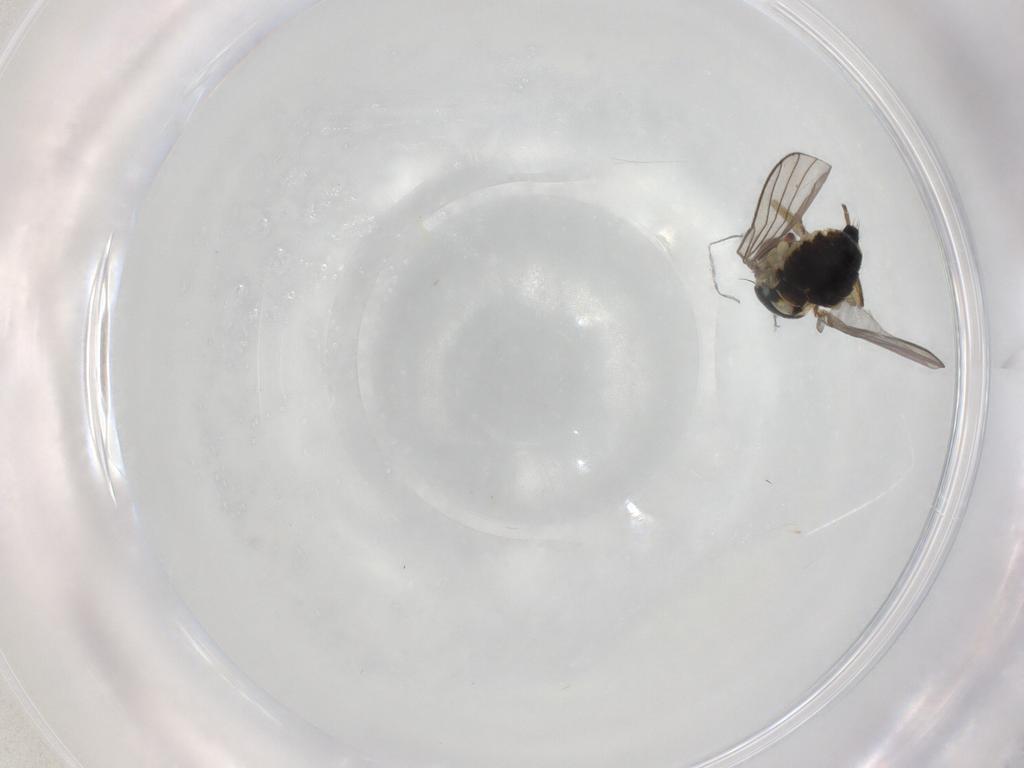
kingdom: Animalia
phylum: Arthropoda
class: Insecta
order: Diptera
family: Agromyzidae
